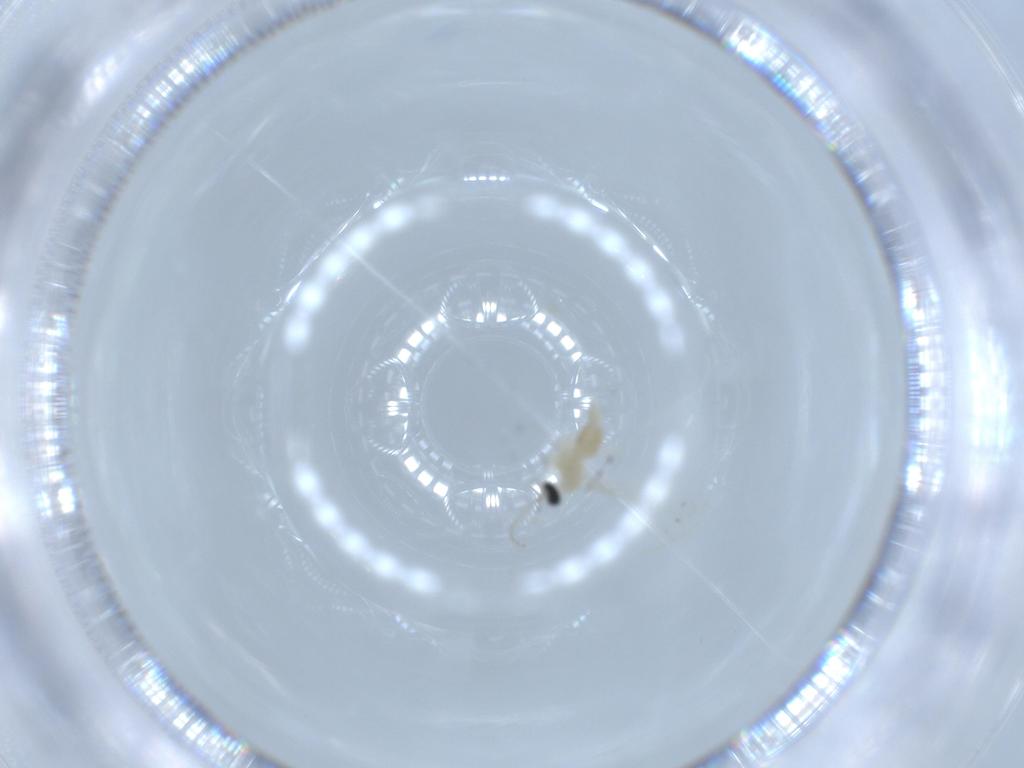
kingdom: Animalia
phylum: Arthropoda
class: Insecta
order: Diptera
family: Cecidomyiidae
